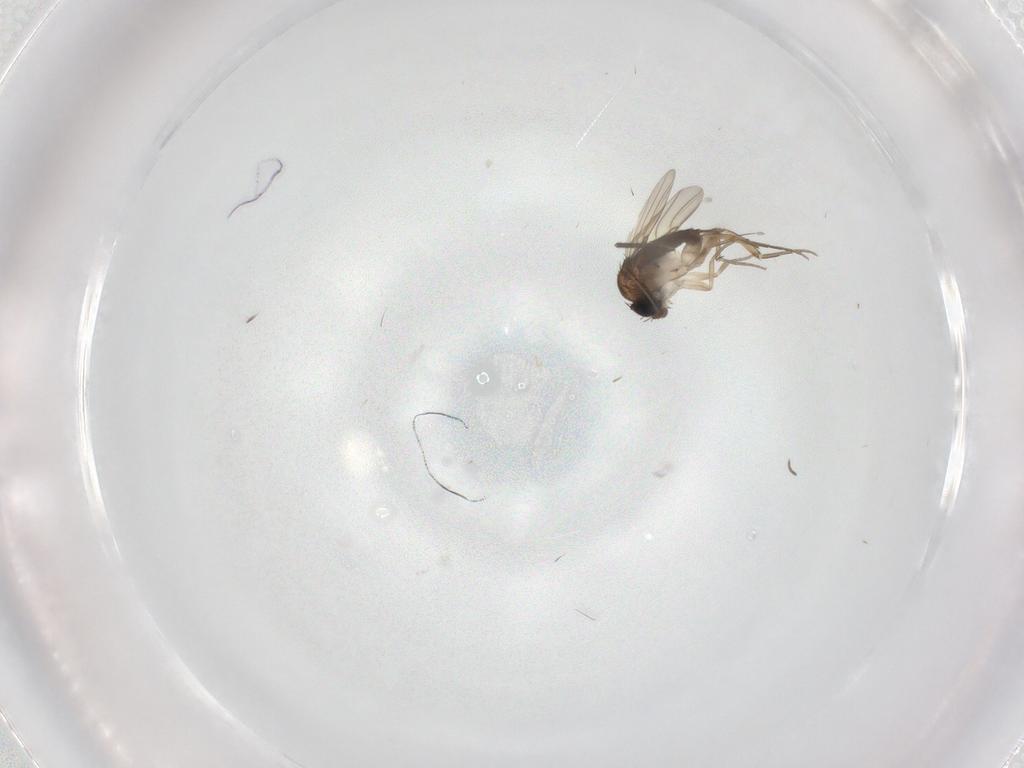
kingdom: Animalia
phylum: Arthropoda
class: Insecta
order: Diptera
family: Phoridae
